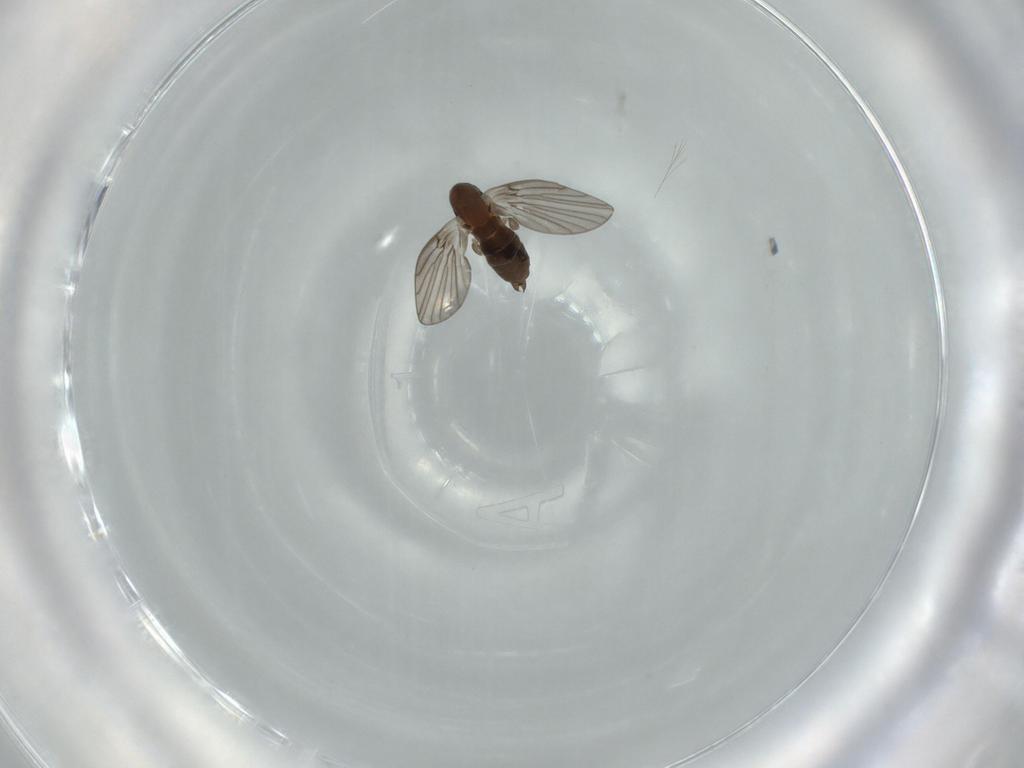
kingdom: Animalia
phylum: Arthropoda
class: Insecta
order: Diptera
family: Psychodidae
